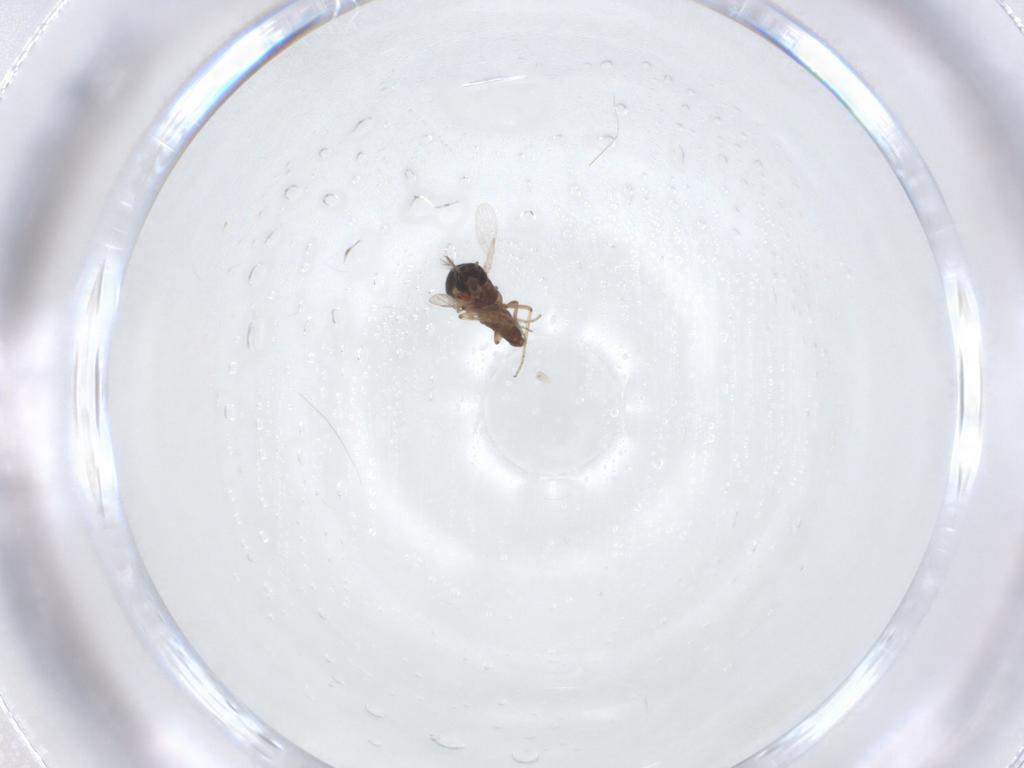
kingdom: Animalia
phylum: Arthropoda
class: Insecta
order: Diptera
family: Ceratopogonidae
